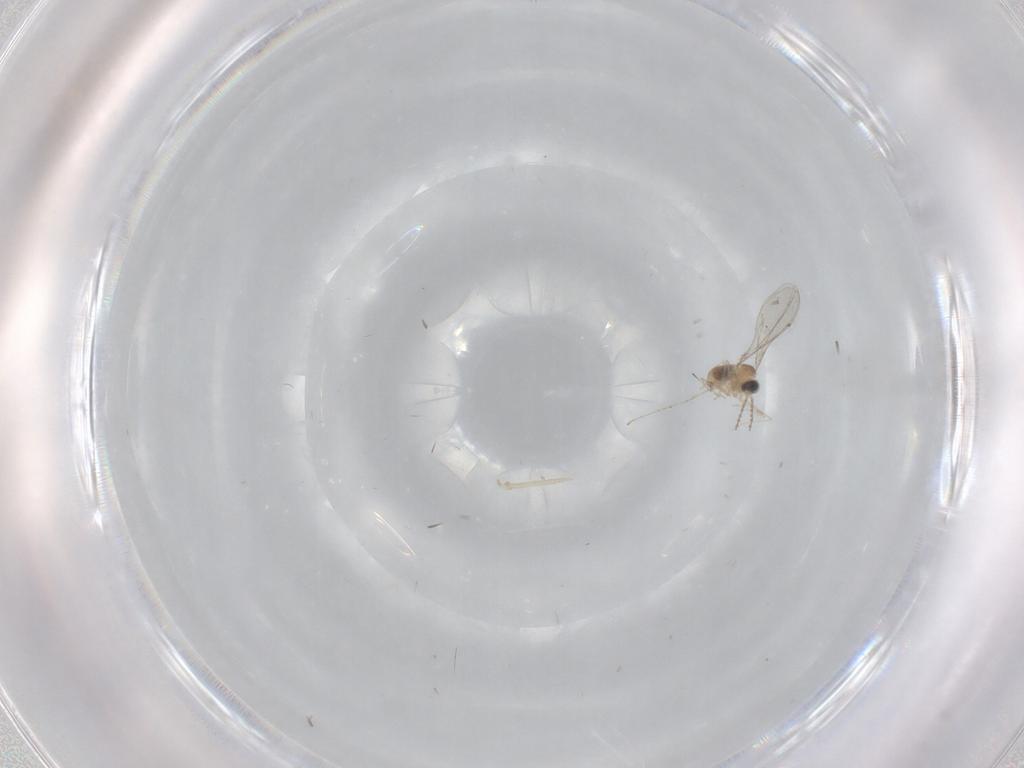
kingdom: Animalia
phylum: Arthropoda
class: Insecta
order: Diptera
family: Cecidomyiidae
